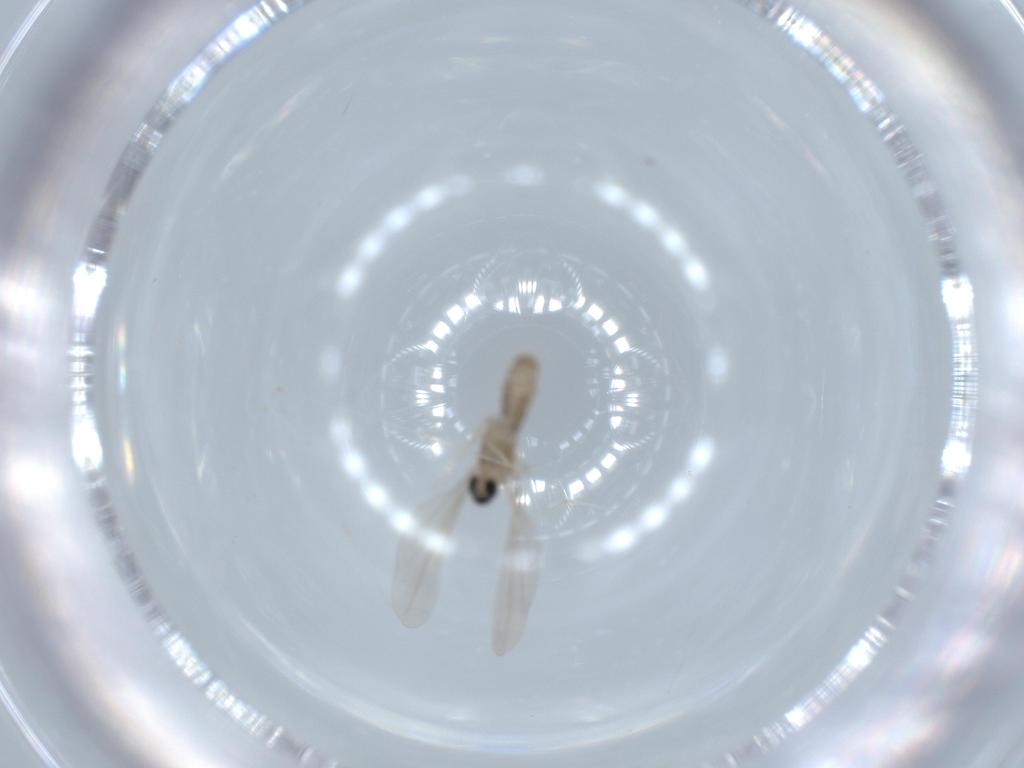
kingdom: Animalia
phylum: Arthropoda
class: Insecta
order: Diptera
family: Cecidomyiidae
